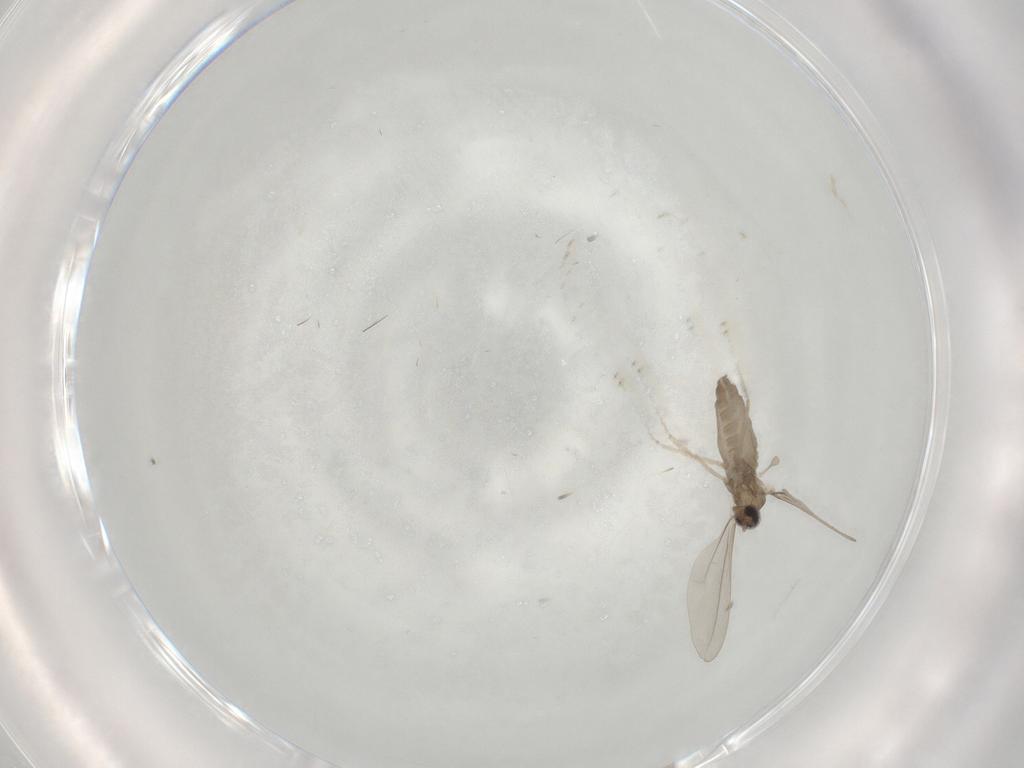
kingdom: Animalia
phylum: Arthropoda
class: Insecta
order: Diptera
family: Cecidomyiidae
